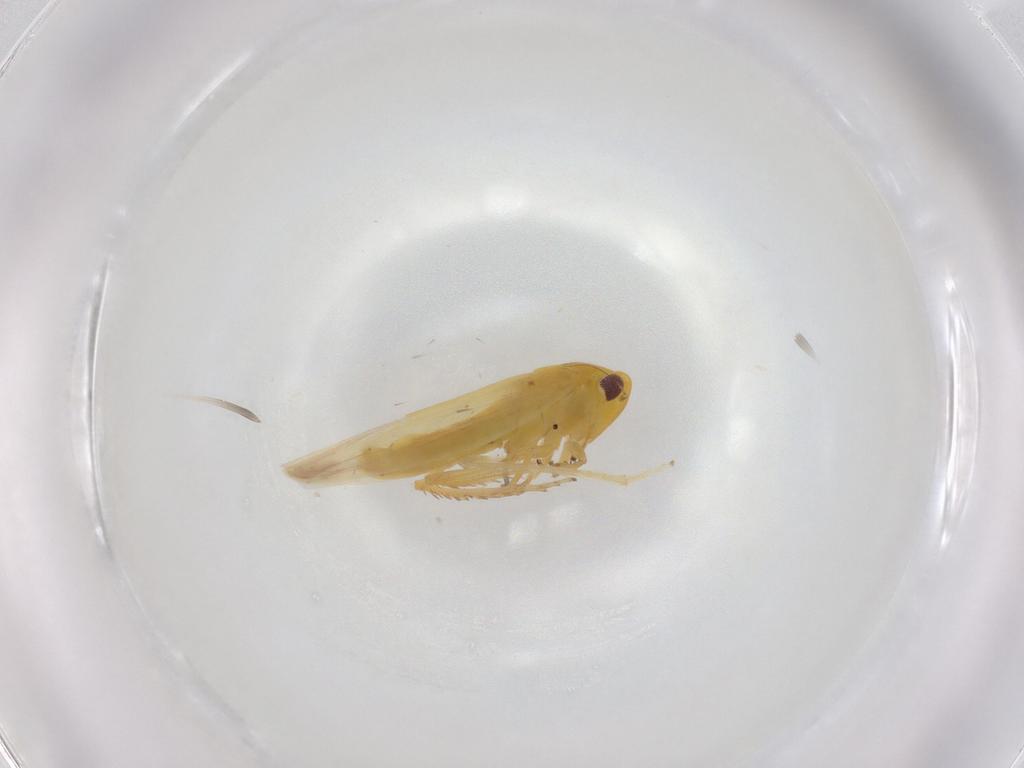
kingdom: Animalia
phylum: Arthropoda
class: Insecta
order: Hemiptera
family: Cicadellidae
